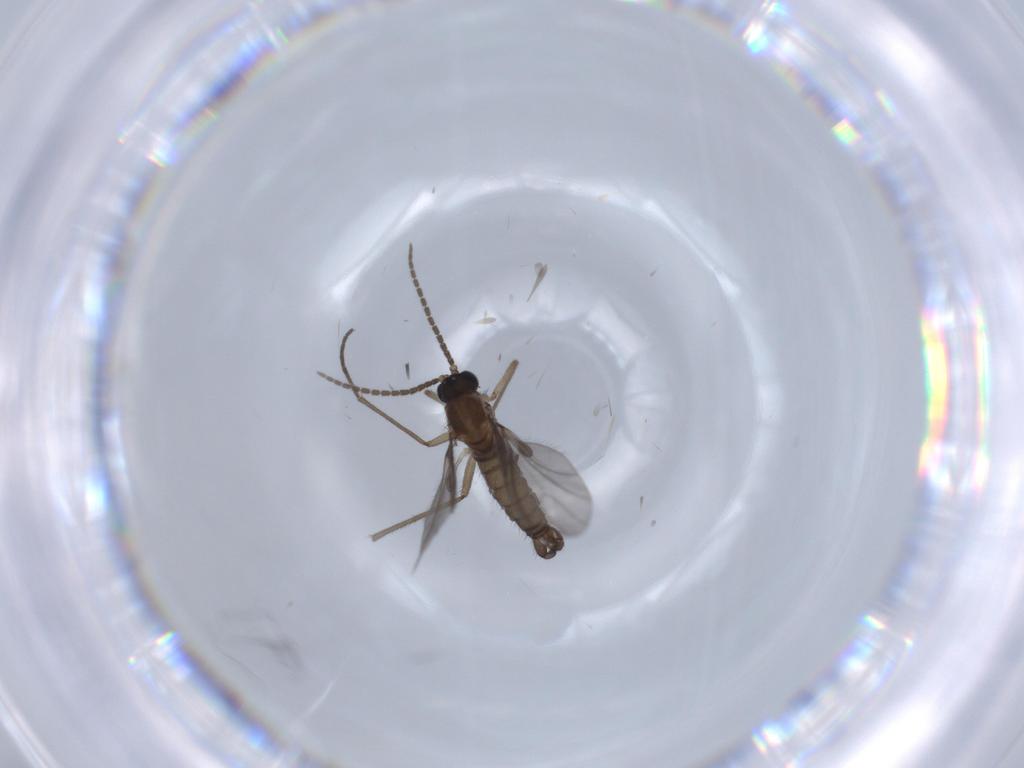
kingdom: Animalia
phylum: Arthropoda
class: Insecta
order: Diptera
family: Sciaridae
